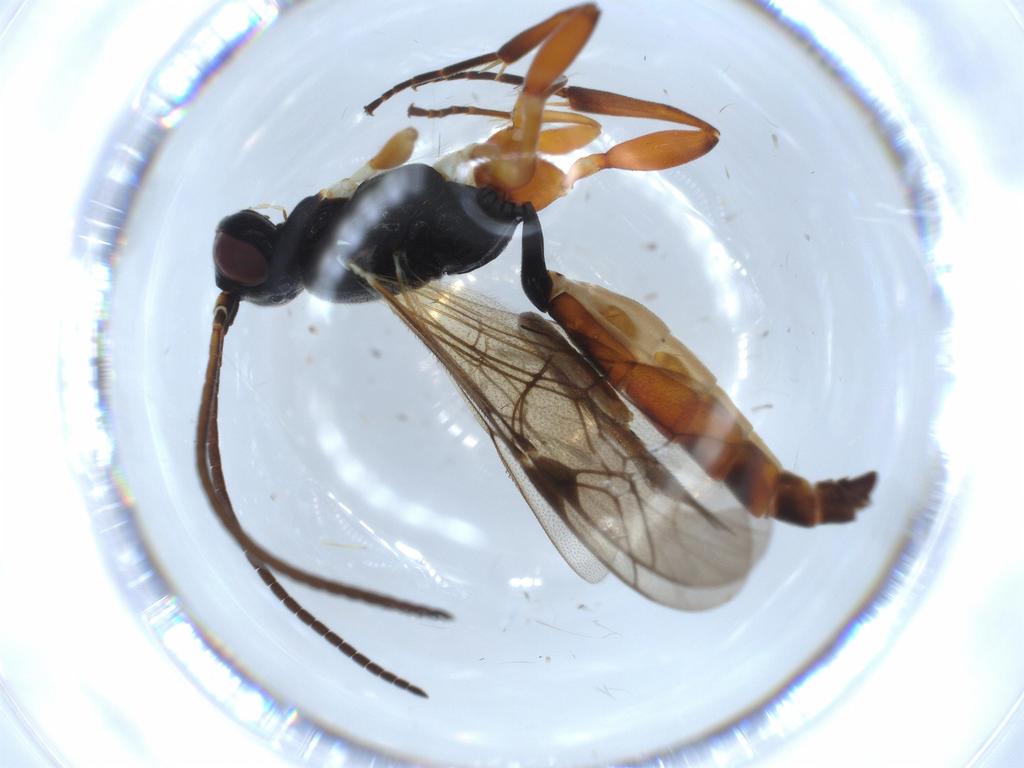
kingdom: Animalia
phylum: Arthropoda
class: Insecta
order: Hymenoptera
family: Ichneumonidae
